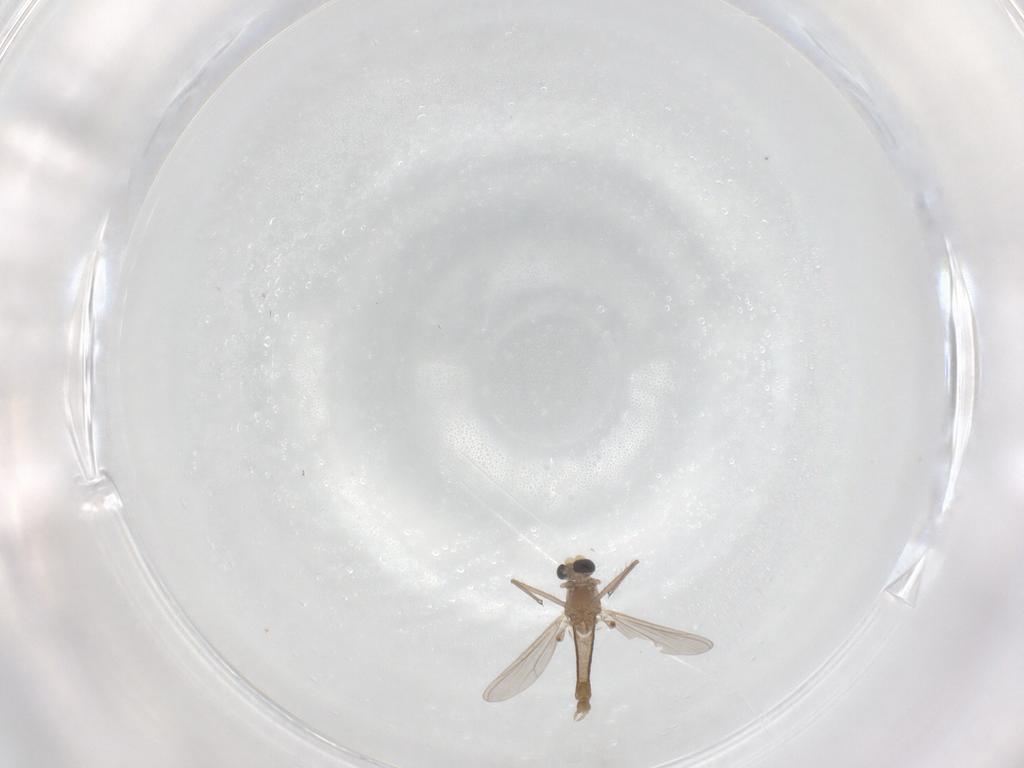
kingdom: Animalia
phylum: Arthropoda
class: Insecta
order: Diptera
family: Chironomidae
